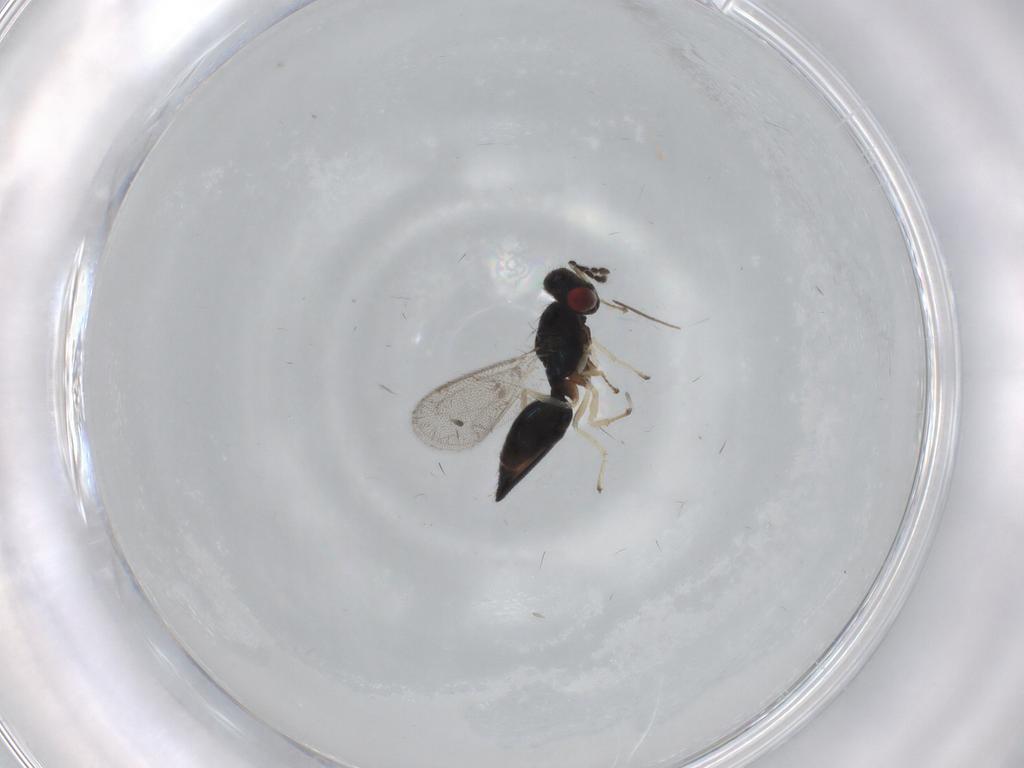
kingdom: Animalia
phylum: Arthropoda
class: Insecta
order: Hymenoptera
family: Eulophidae
